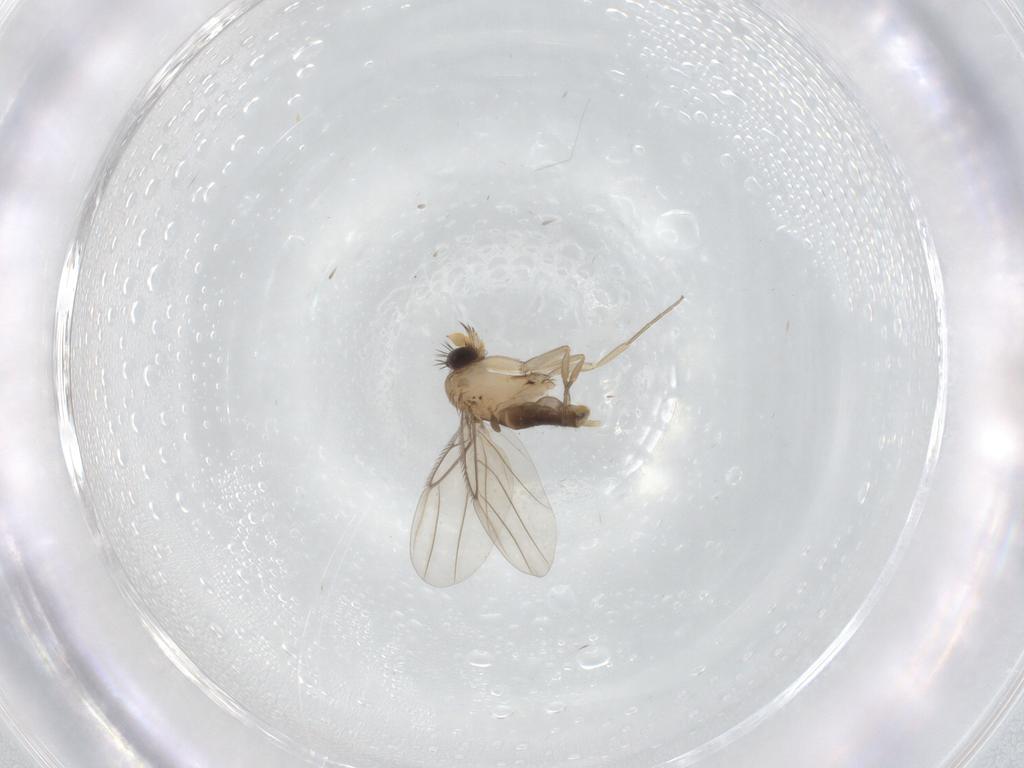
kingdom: Animalia
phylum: Arthropoda
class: Insecta
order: Diptera
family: Phoridae
